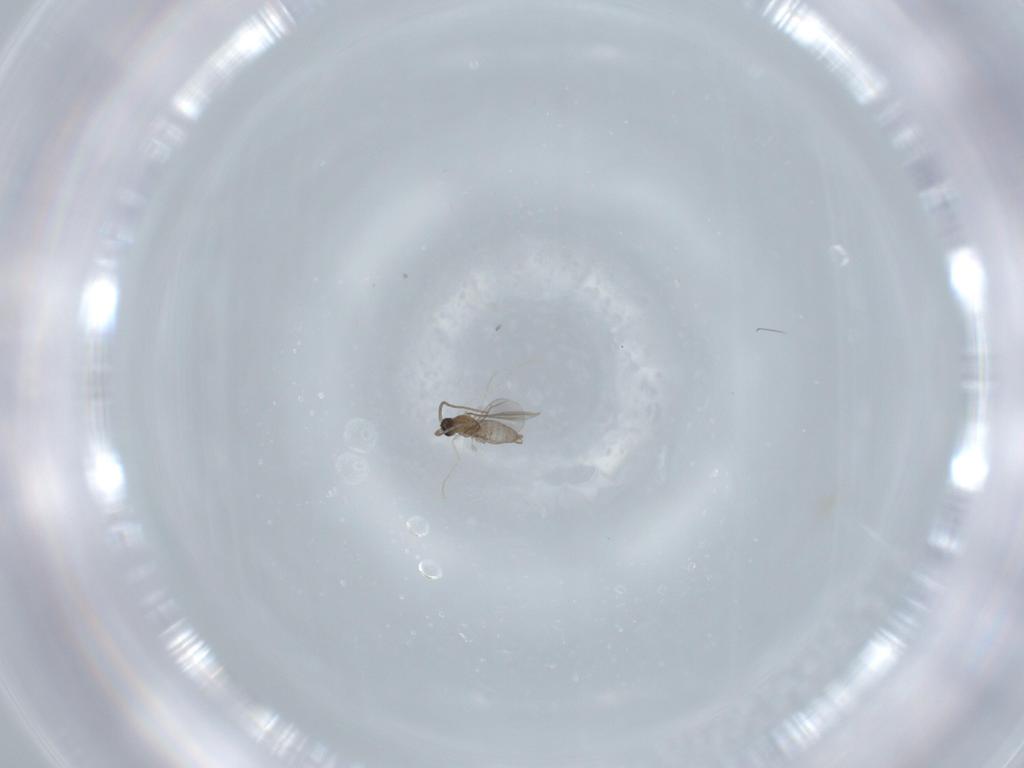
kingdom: Animalia
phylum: Arthropoda
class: Insecta
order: Diptera
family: Cecidomyiidae
